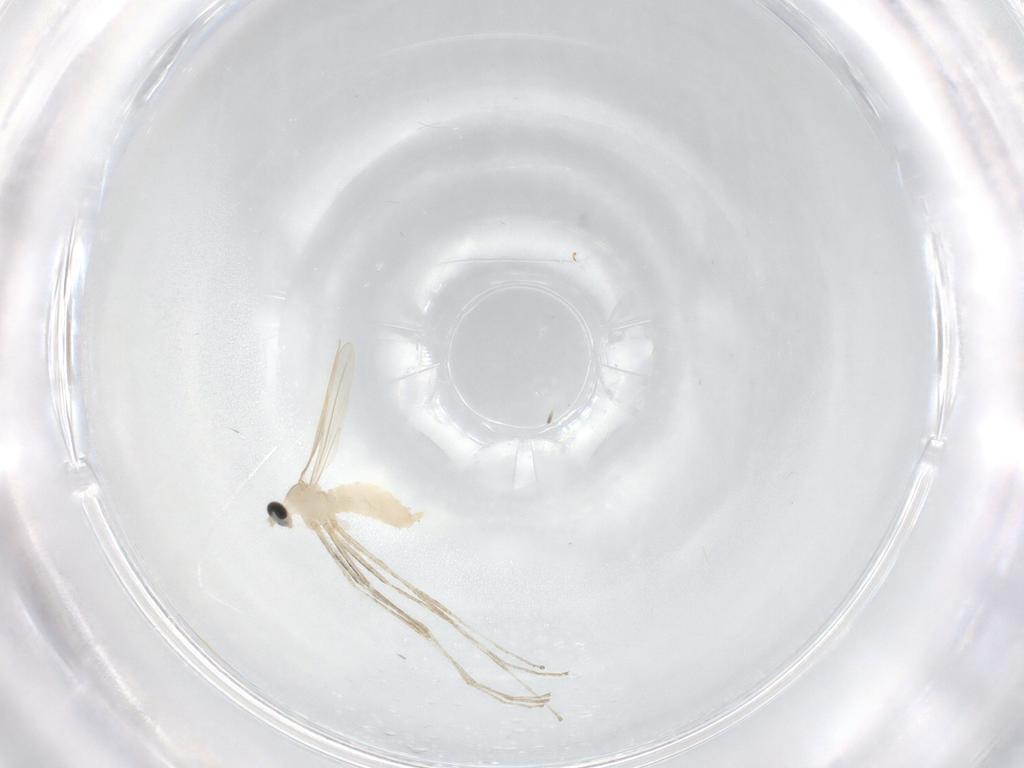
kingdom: Animalia
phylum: Arthropoda
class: Insecta
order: Diptera
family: Cecidomyiidae
